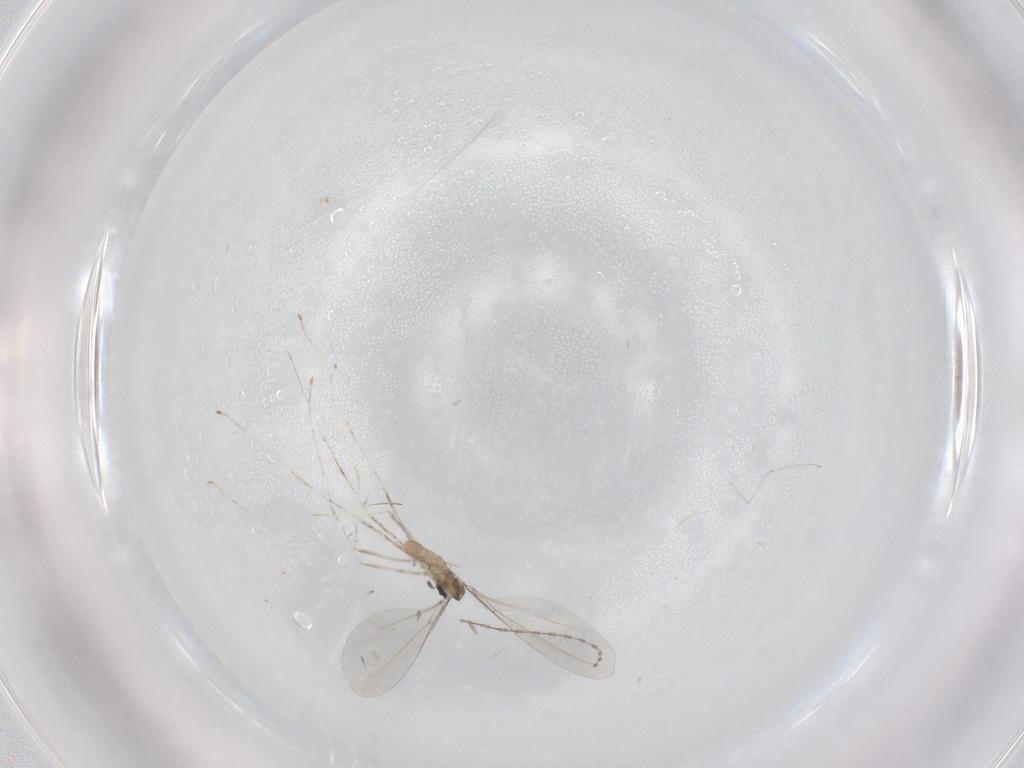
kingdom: Animalia
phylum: Arthropoda
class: Insecta
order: Diptera
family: Cecidomyiidae
